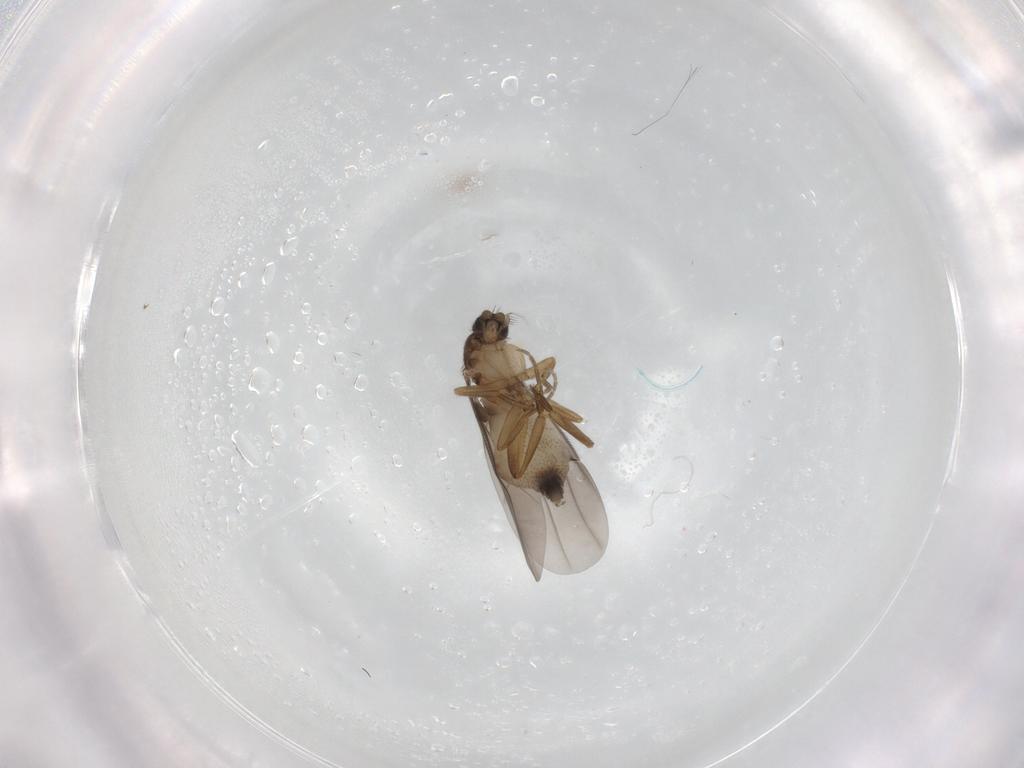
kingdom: Animalia
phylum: Arthropoda
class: Insecta
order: Diptera
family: Phoridae
